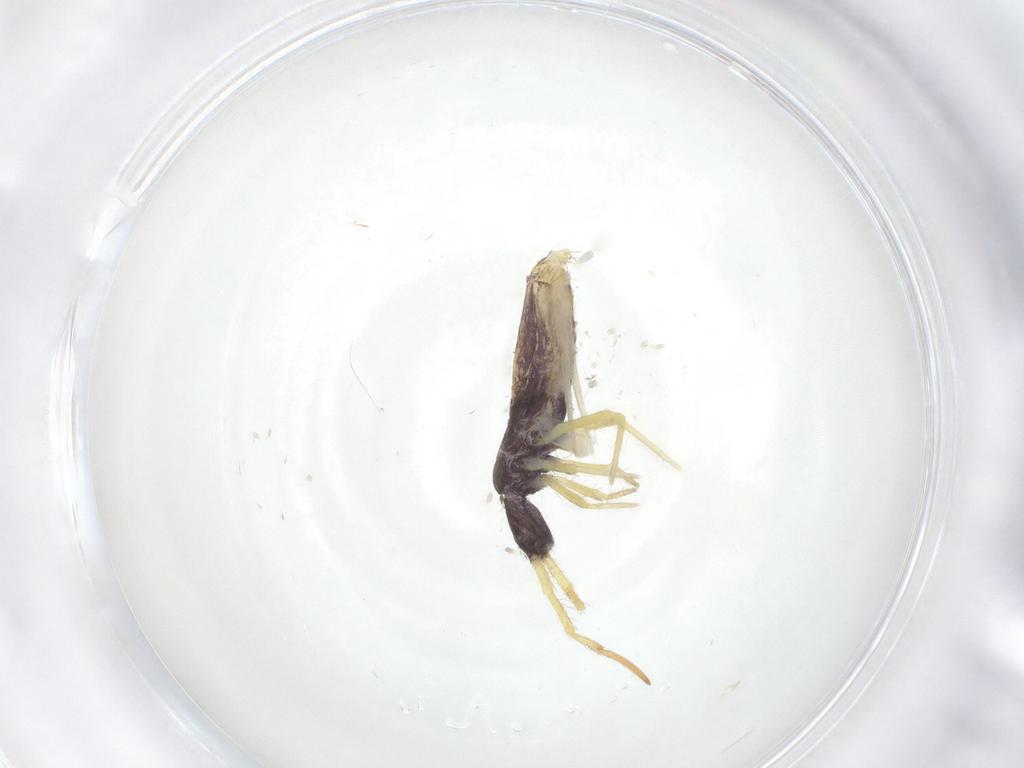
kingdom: Animalia
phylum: Arthropoda
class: Collembola
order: Entomobryomorpha
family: Entomobryidae
